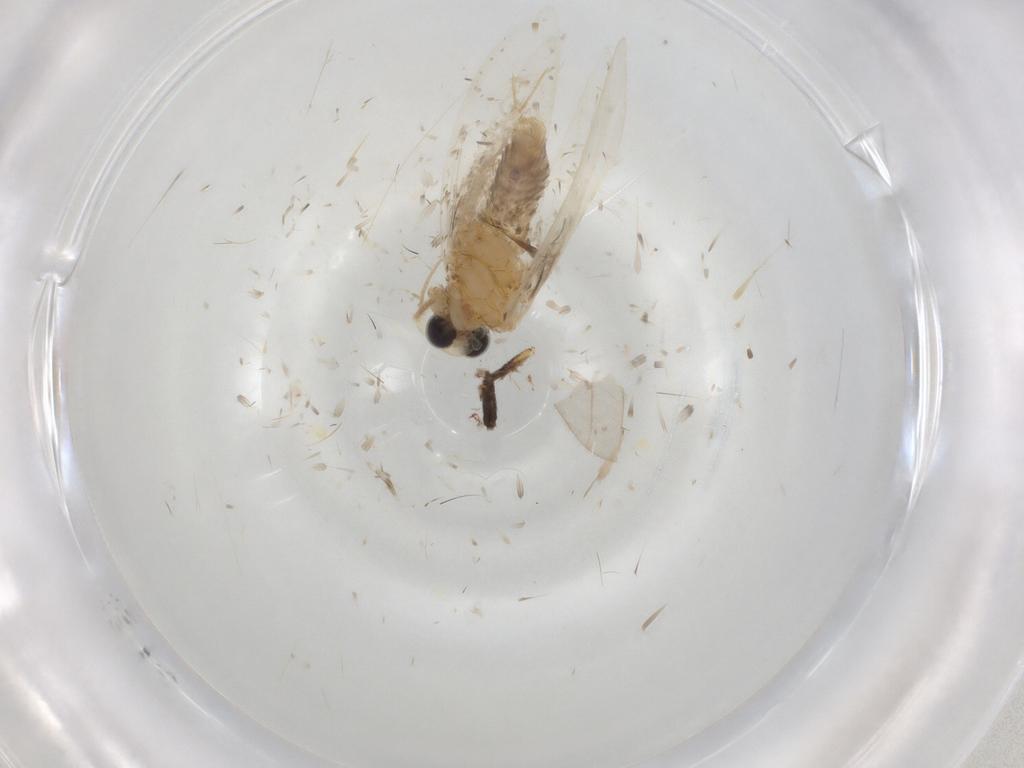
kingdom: Animalia
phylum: Arthropoda
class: Insecta
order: Lepidoptera
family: Psychidae
